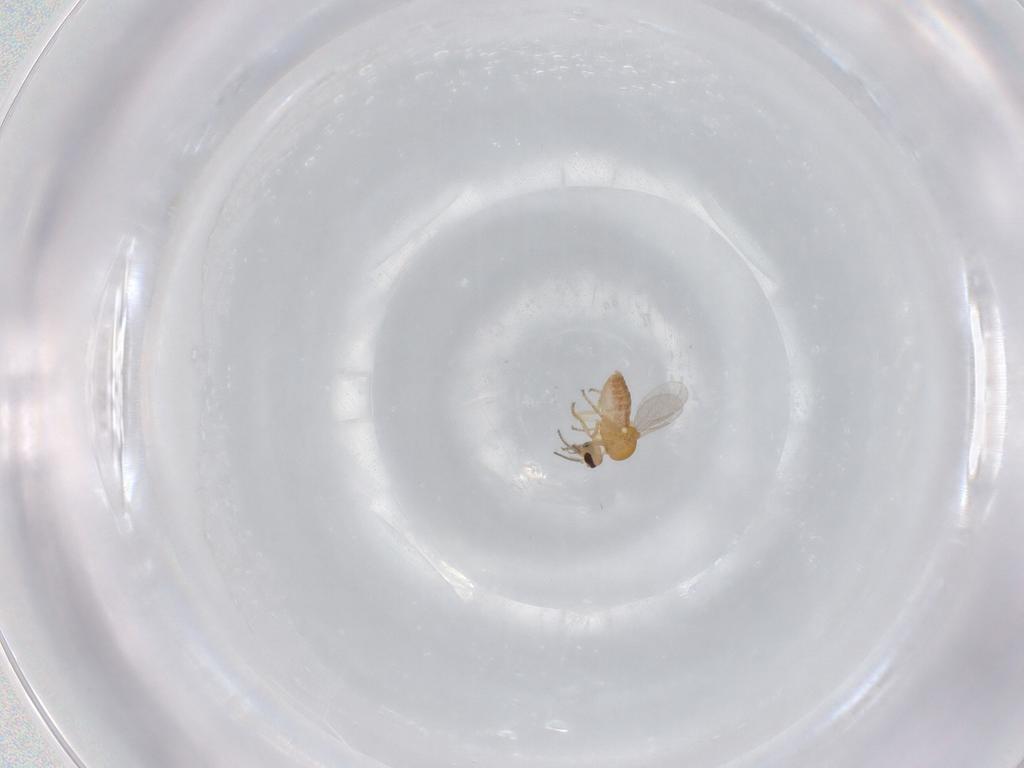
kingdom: Animalia
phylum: Arthropoda
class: Insecta
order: Diptera
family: Ceratopogonidae
